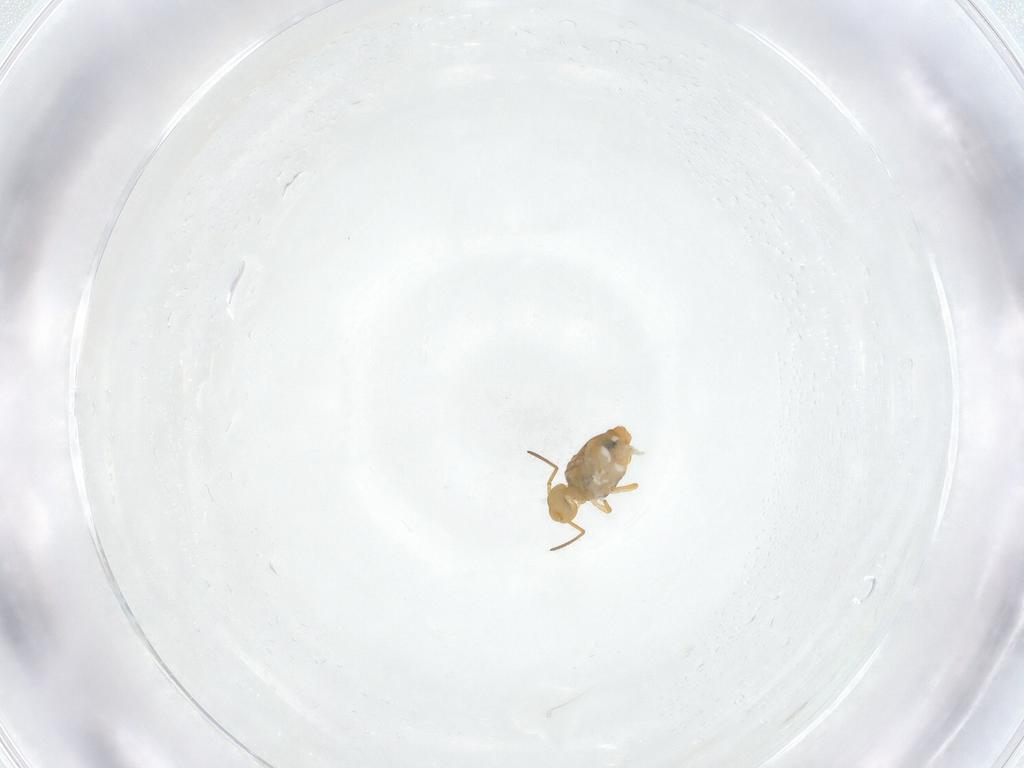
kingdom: Animalia
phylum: Arthropoda
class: Collembola
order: Symphypleona
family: Katiannidae
